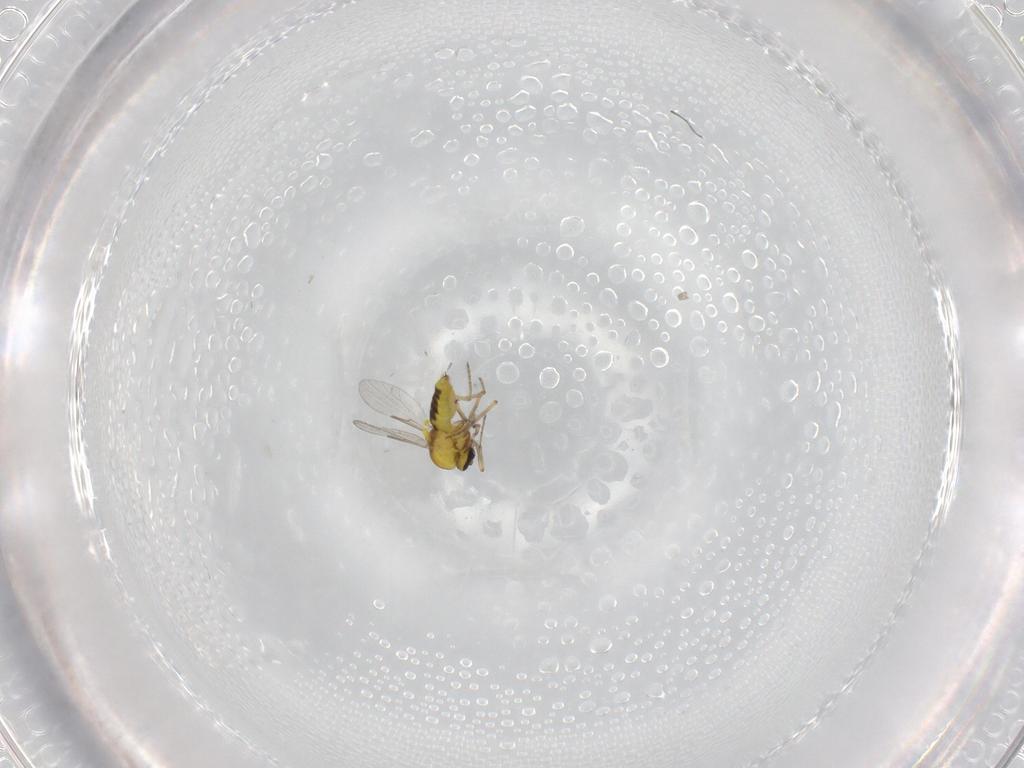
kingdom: Animalia
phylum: Arthropoda
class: Insecta
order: Diptera
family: Ceratopogonidae
